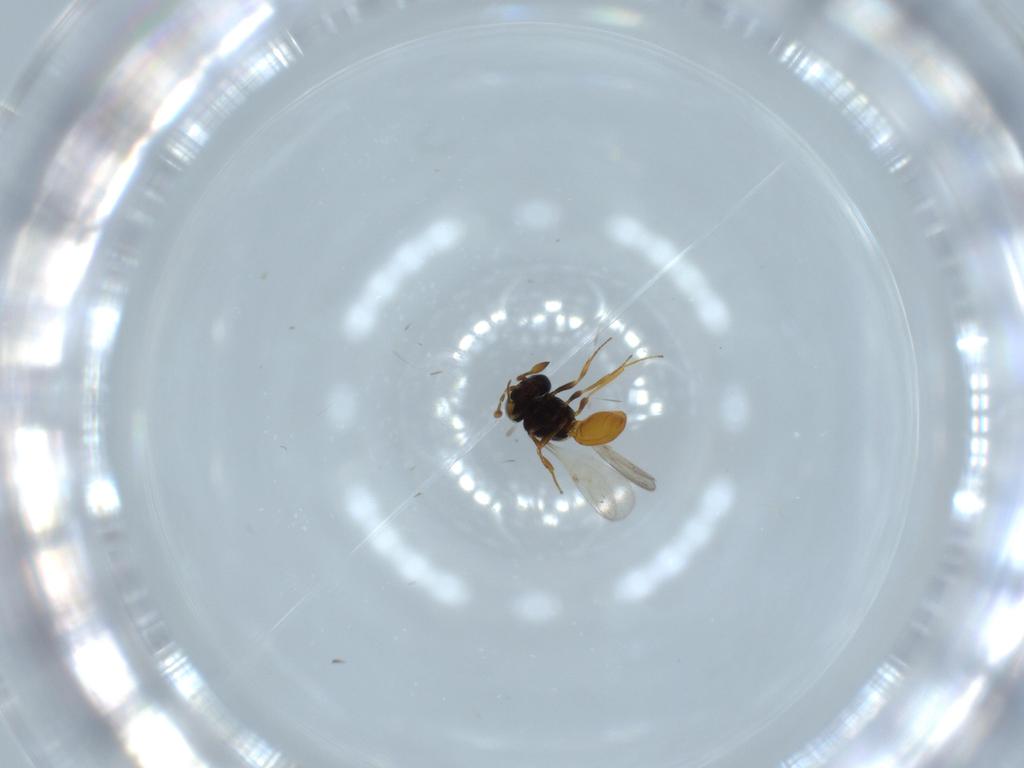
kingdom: Animalia
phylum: Arthropoda
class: Insecta
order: Hymenoptera
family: Scelionidae
